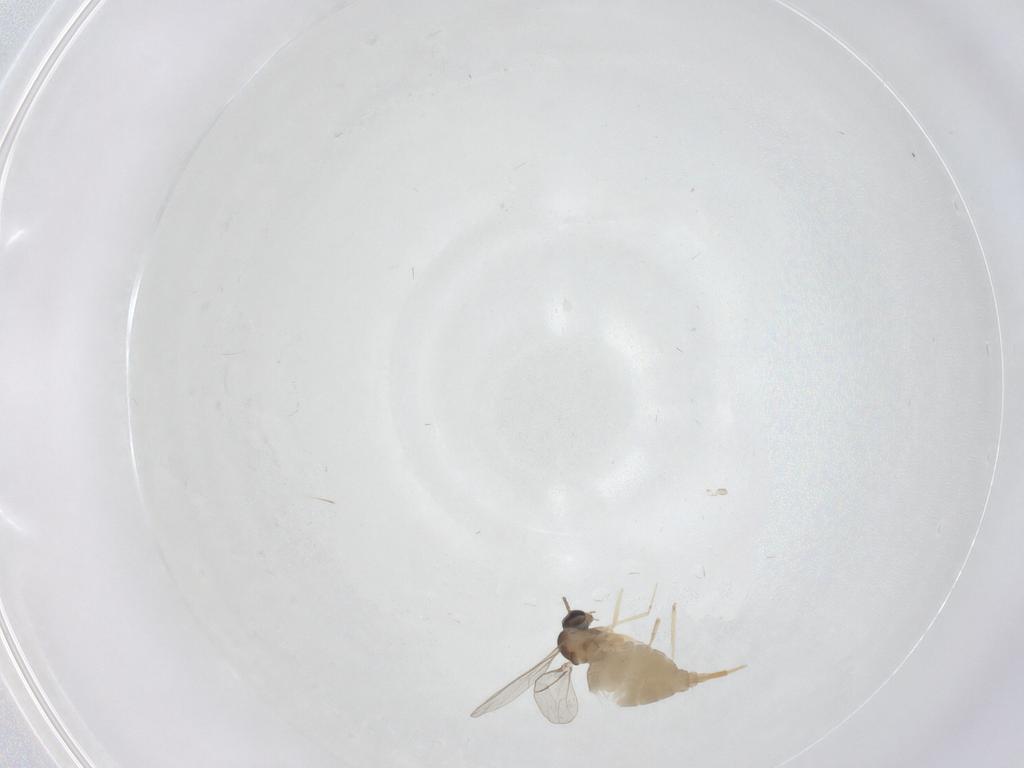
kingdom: Animalia
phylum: Arthropoda
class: Insecta
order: Diptera
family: Cecidomyiidae
